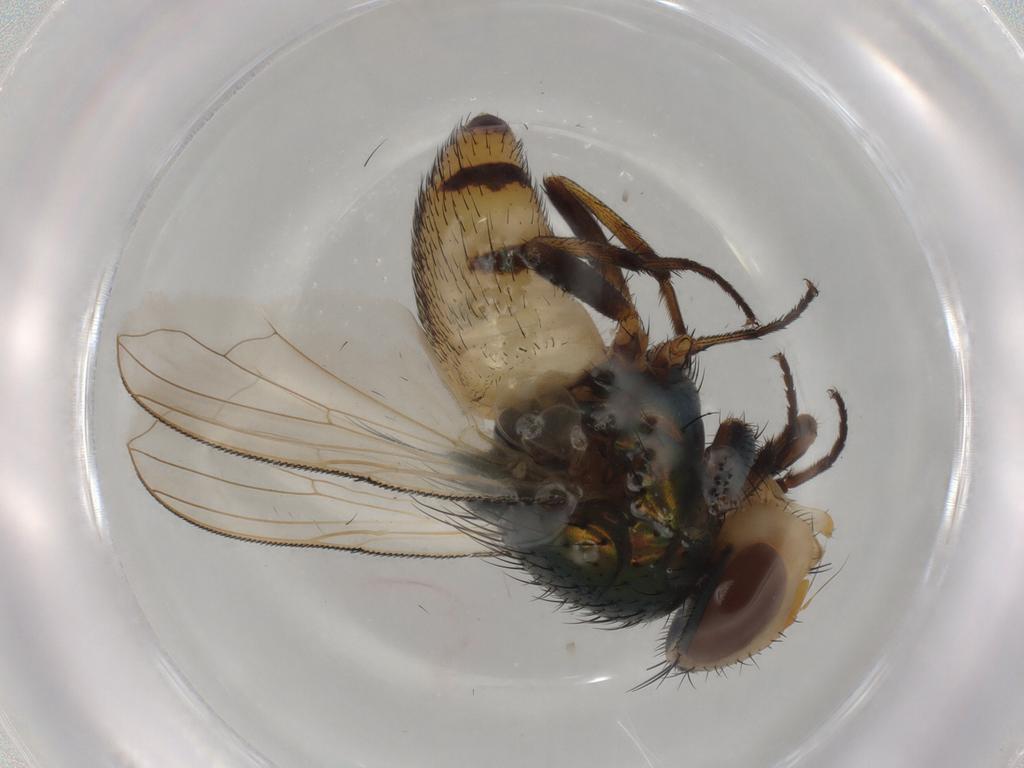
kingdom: Animalia
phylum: Arthropoda
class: Insecta
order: Diptera
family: Calliphoridae
